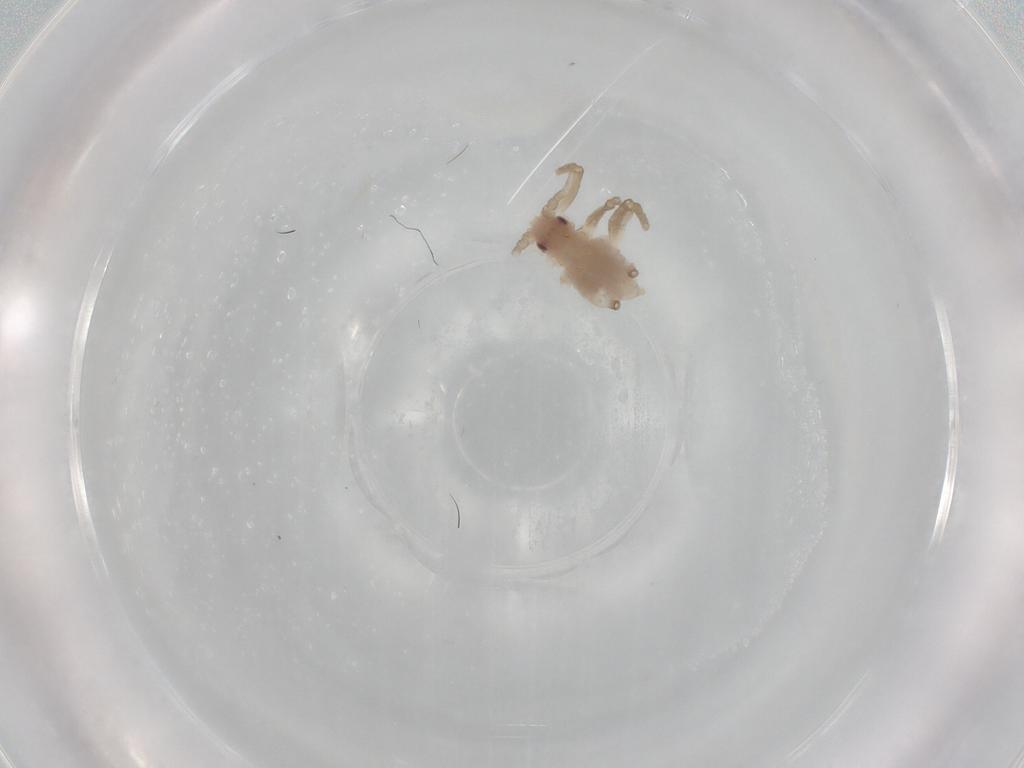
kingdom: Animalia
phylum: Arthropoda
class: Insecta
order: Hemiptera
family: Aphididae
